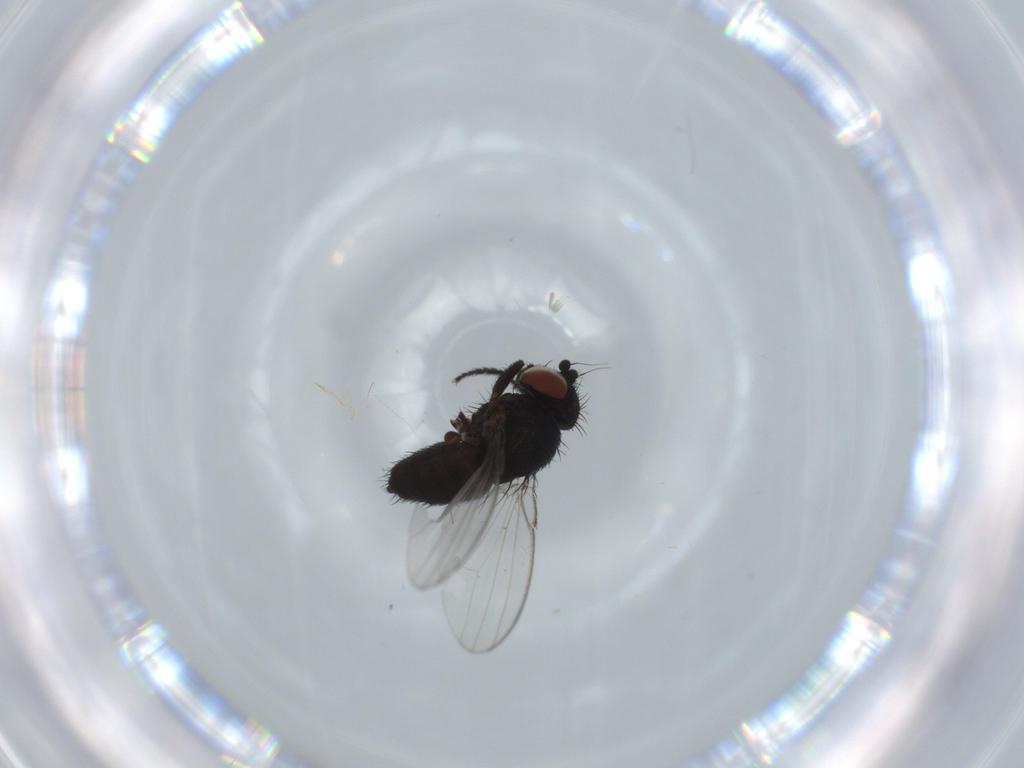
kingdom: Animalia
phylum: Arthropoda
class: Insecta
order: Diptera
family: Milichiidae
